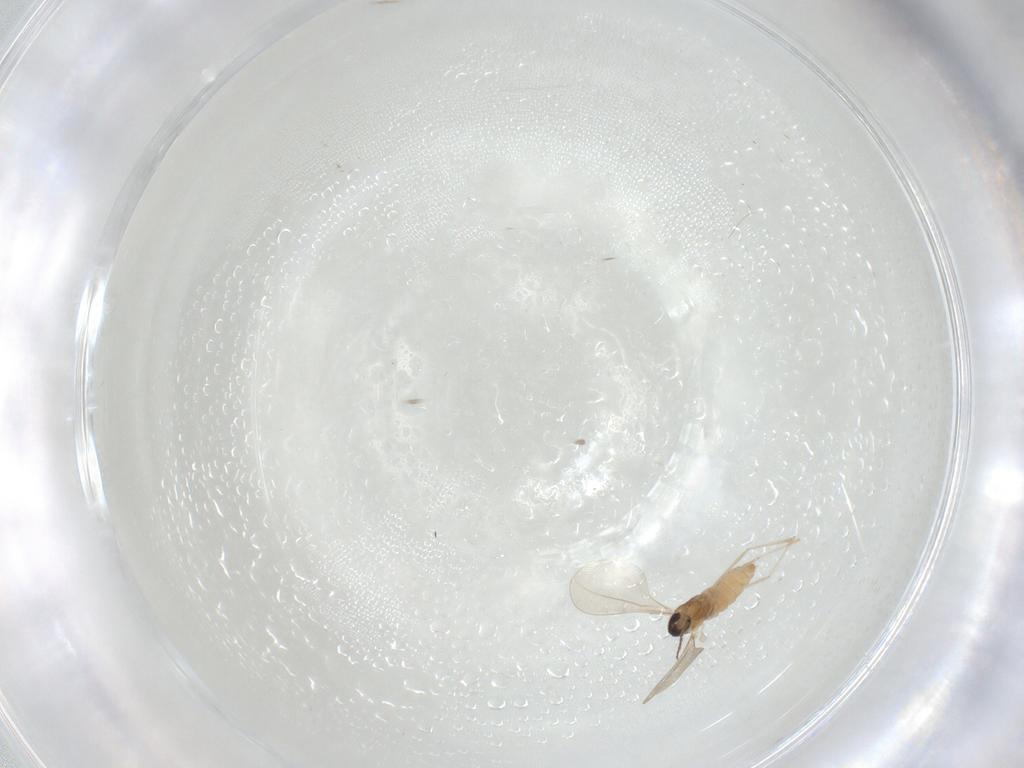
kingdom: Animalia
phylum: Arthropoda
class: Insecta
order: Diptera
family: Cecidomyiidae
